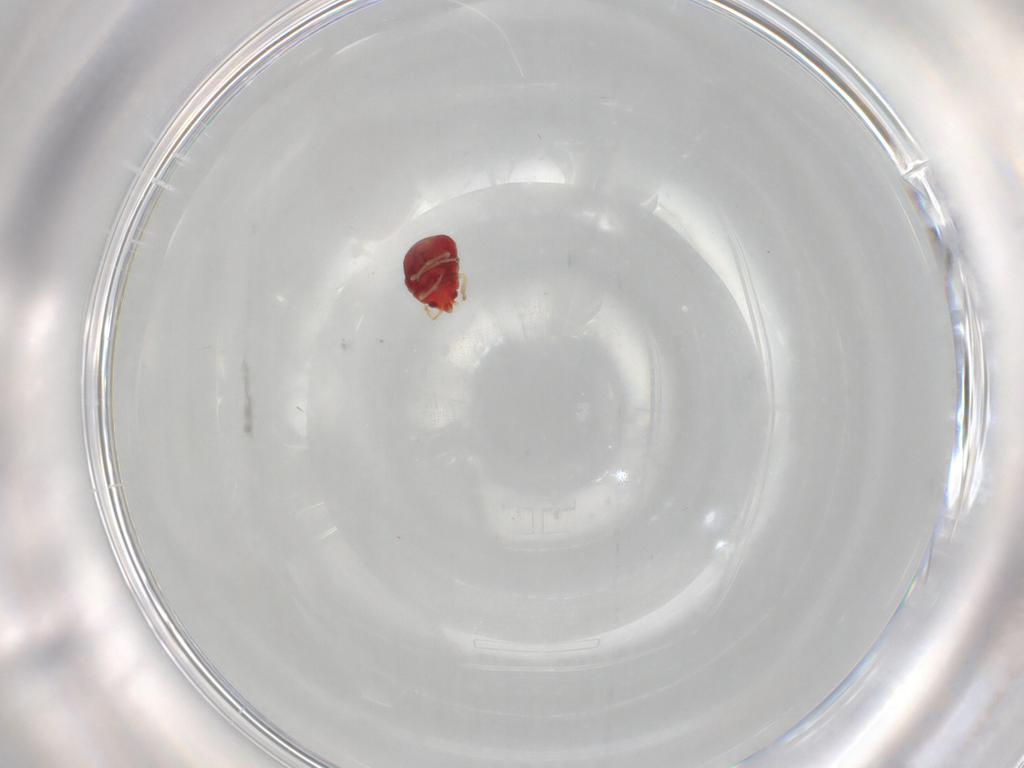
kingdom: Animalia
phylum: Arthropoda
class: Insecta
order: Hemiptera
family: Anthocoridae
